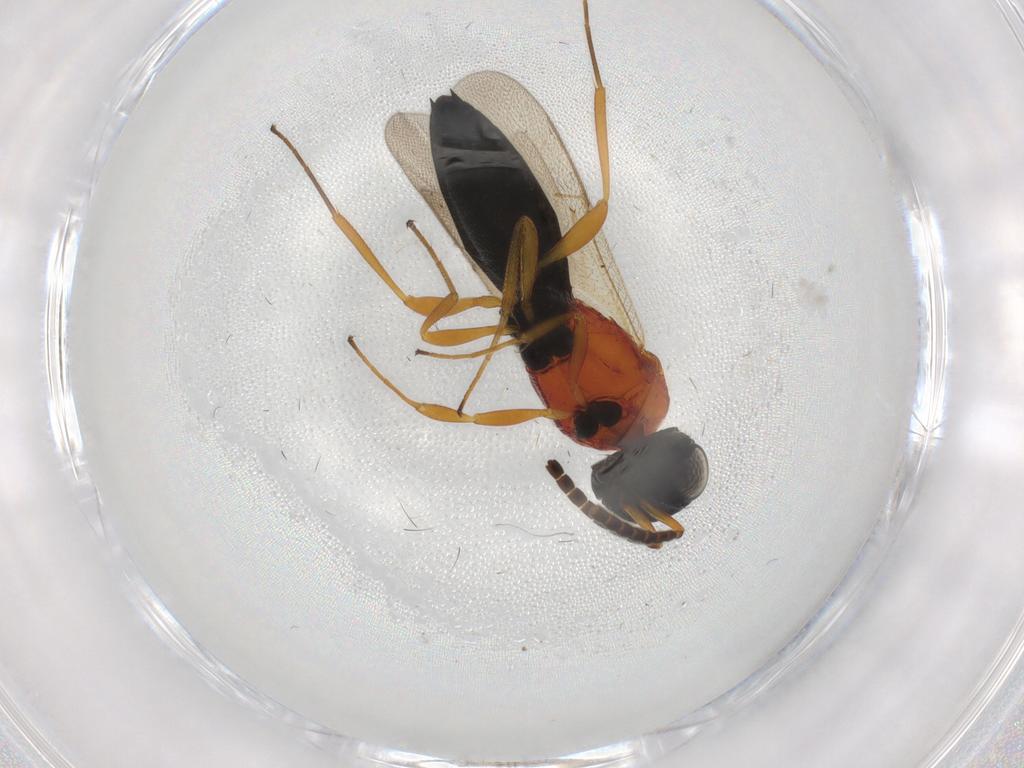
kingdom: Animalia
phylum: Arthropoda
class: Insecta
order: Hymenoptera
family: Scelionidae
